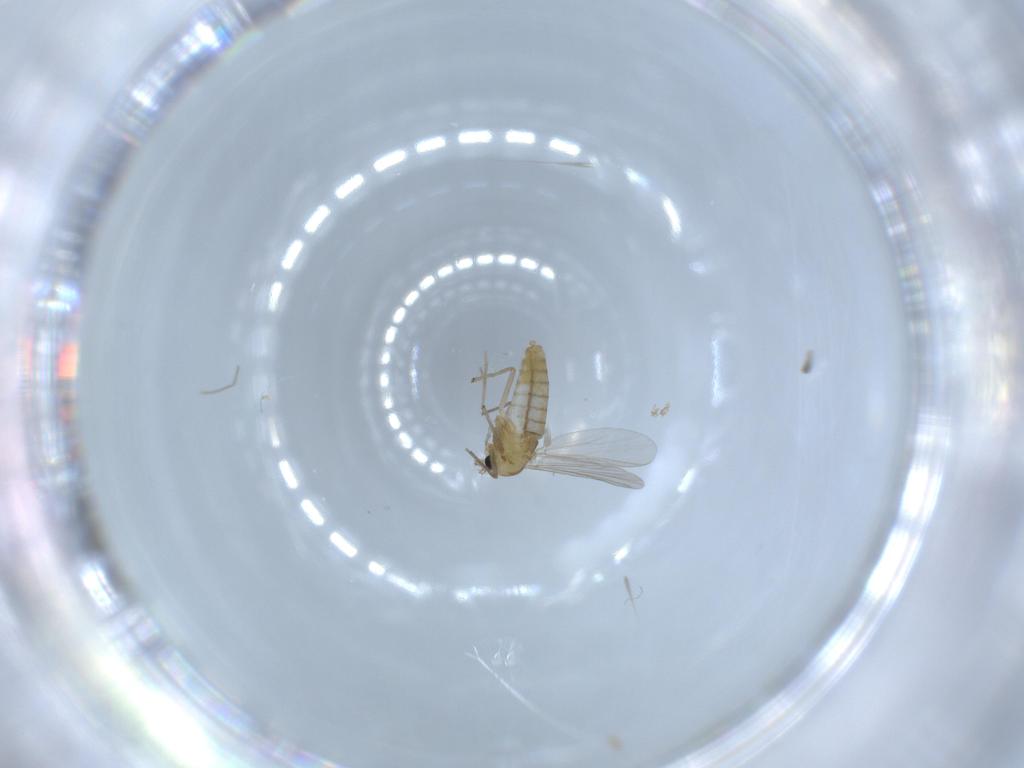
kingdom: Animalia
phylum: Arthropoda
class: Insecta
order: Diptera
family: Chironomidae
